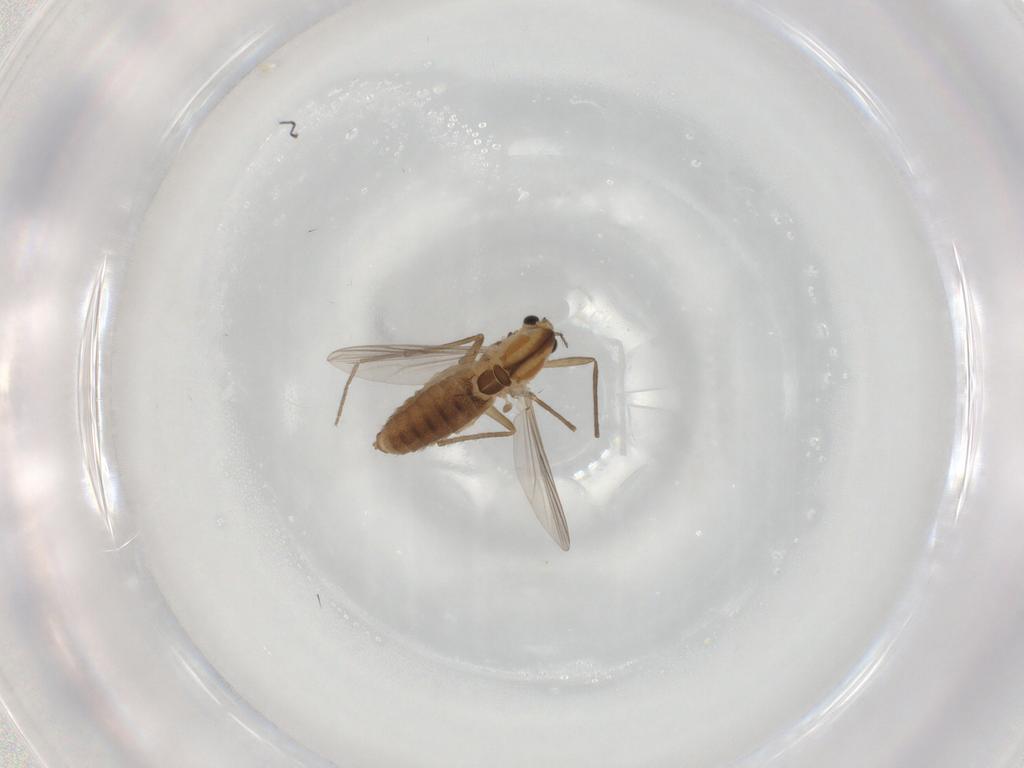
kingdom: Animalia
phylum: Arthropoda
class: Insecta
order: Diptera
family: Chironomidae
